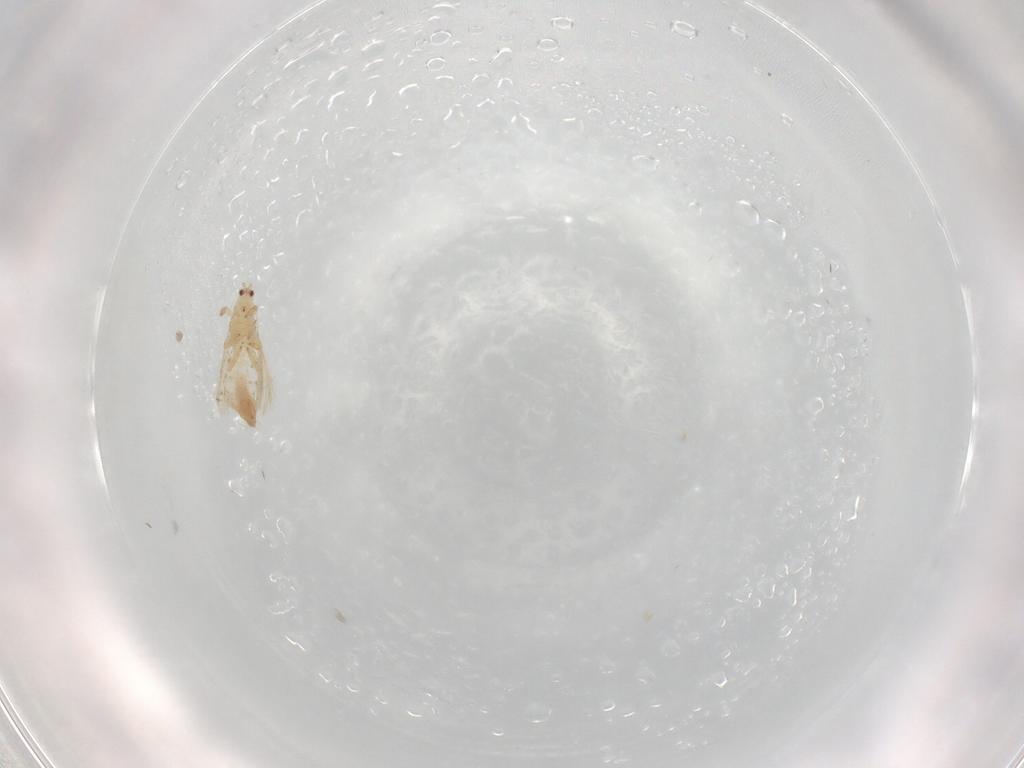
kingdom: Animalia
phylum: Arthropoda
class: Insecta
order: Thysanoptera
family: Thripidae
